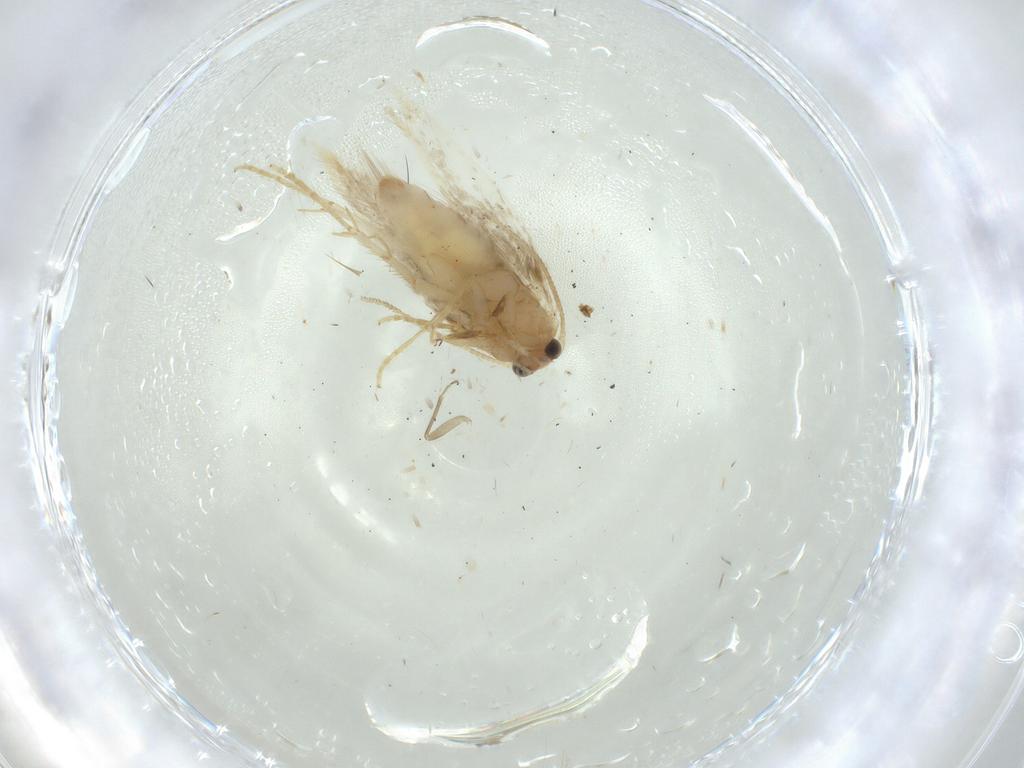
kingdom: Animalia
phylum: Arthropoda
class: Insecta
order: Lepidoptera
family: Nepticulidae
